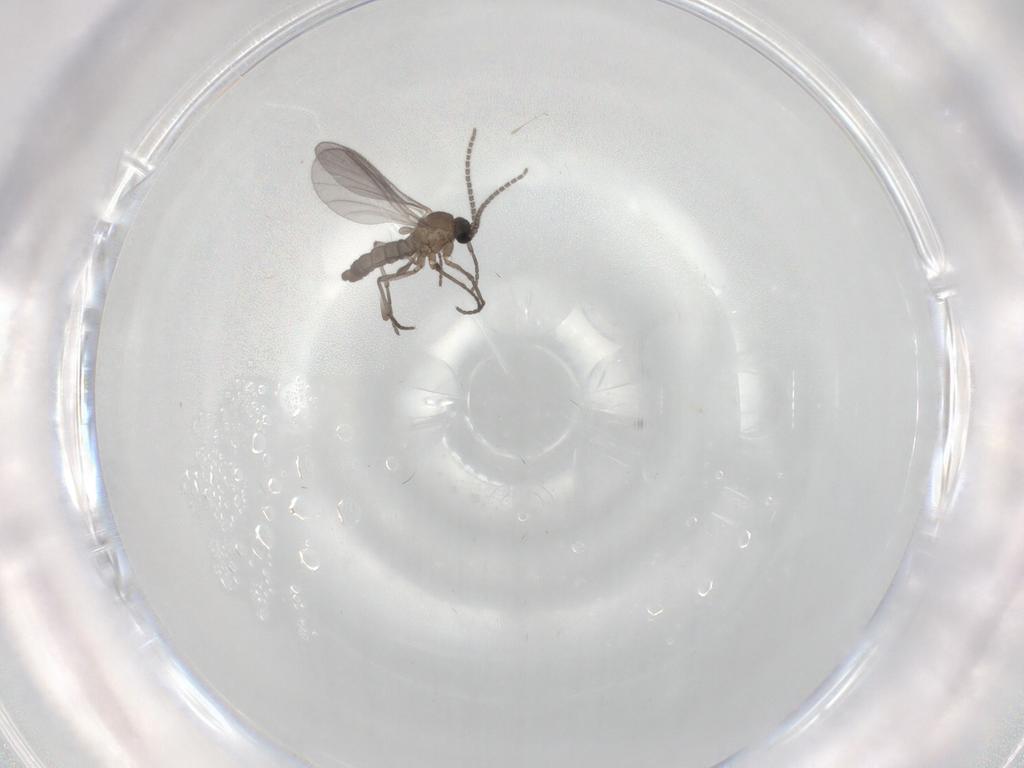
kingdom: Animalia
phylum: Arthropoda
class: Insecta
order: Diptera
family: Sciaridae
